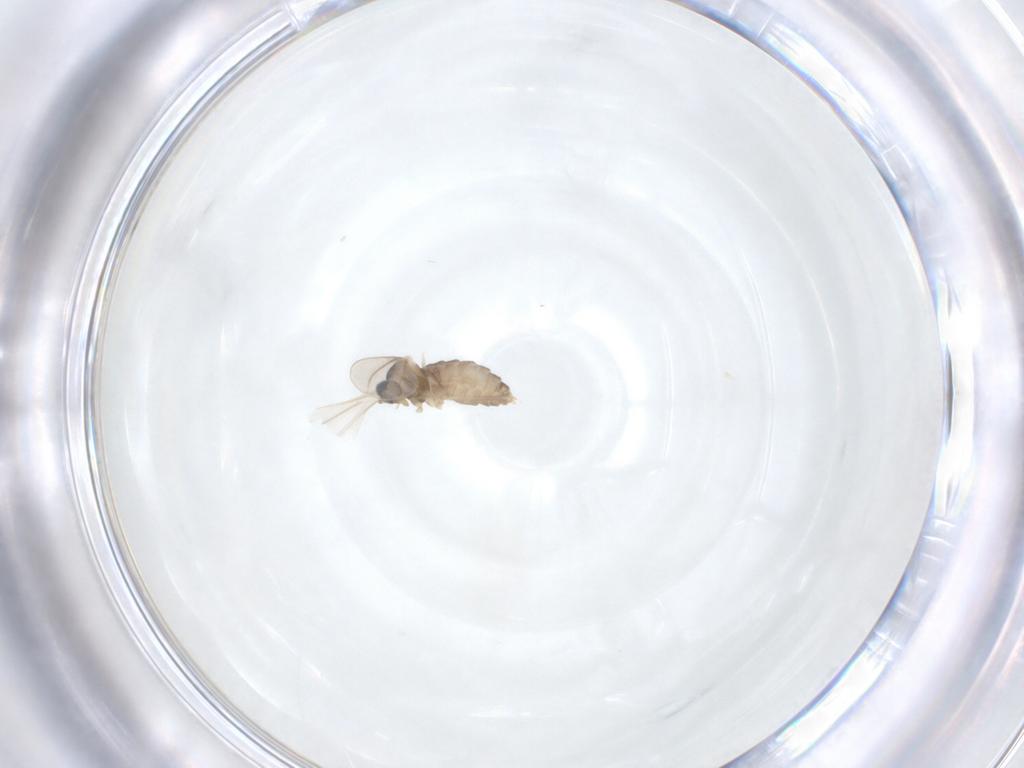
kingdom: Animalia
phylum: Arthropoda
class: Insecta
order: Diptera
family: Cecidomyiidae
